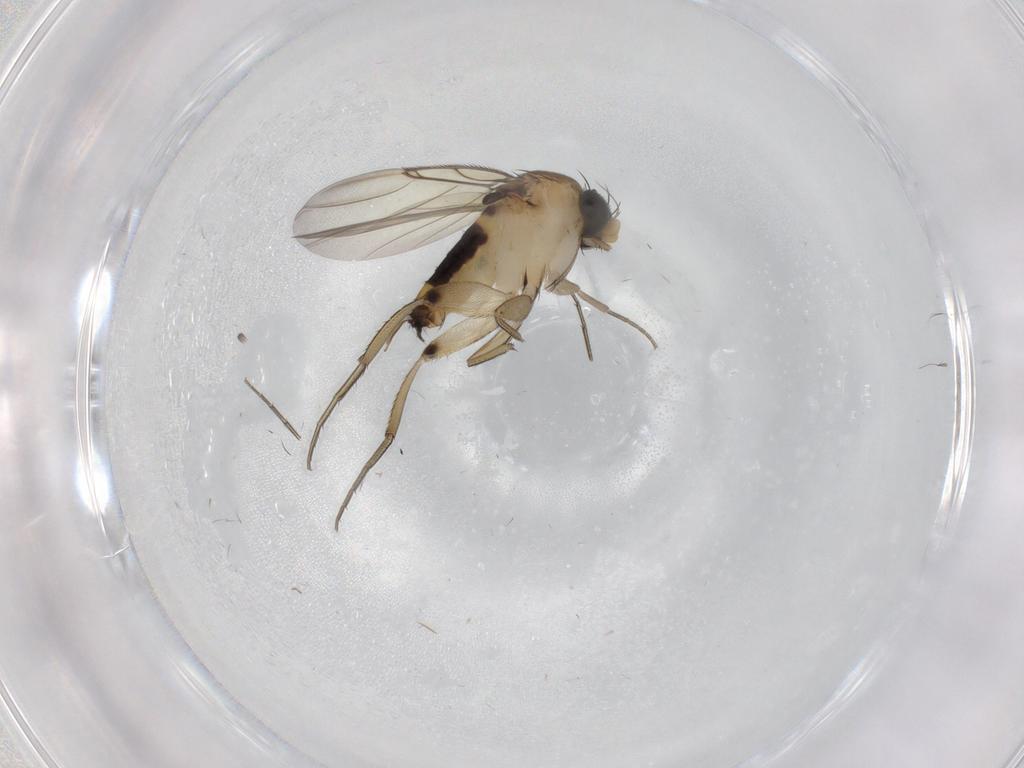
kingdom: Animalia
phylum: Arthropoda
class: Insecta
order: Diptera
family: Phoridae
